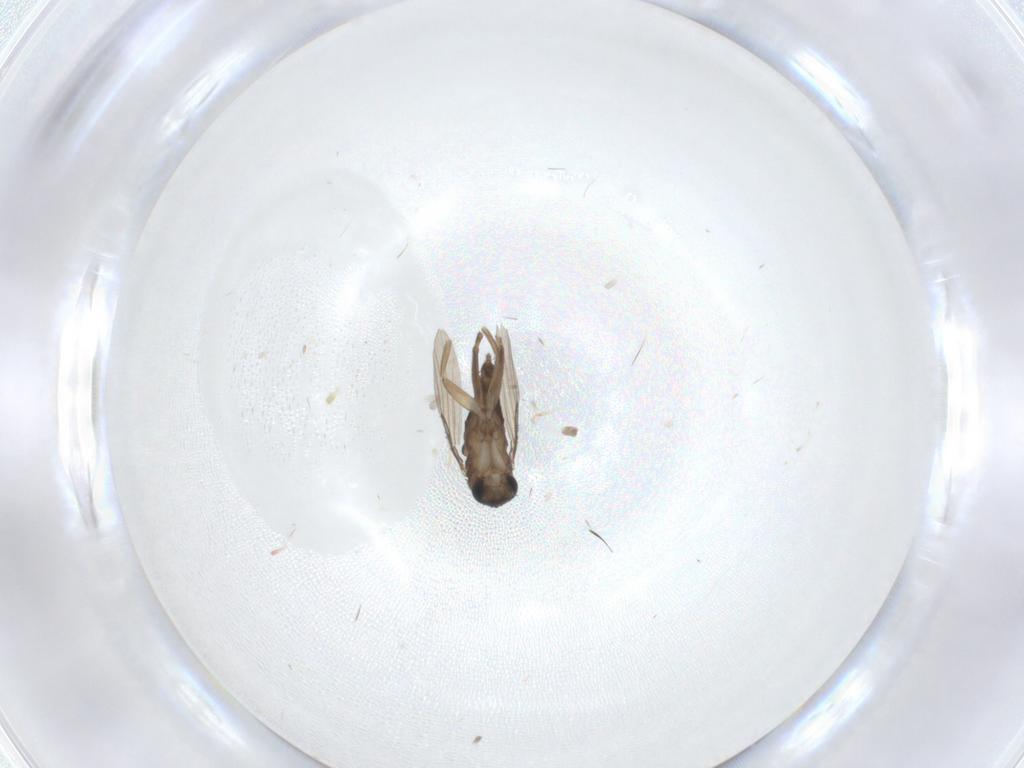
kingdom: Animalia
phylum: Arthropoda
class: Insecta
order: Diptera
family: Phoridae
